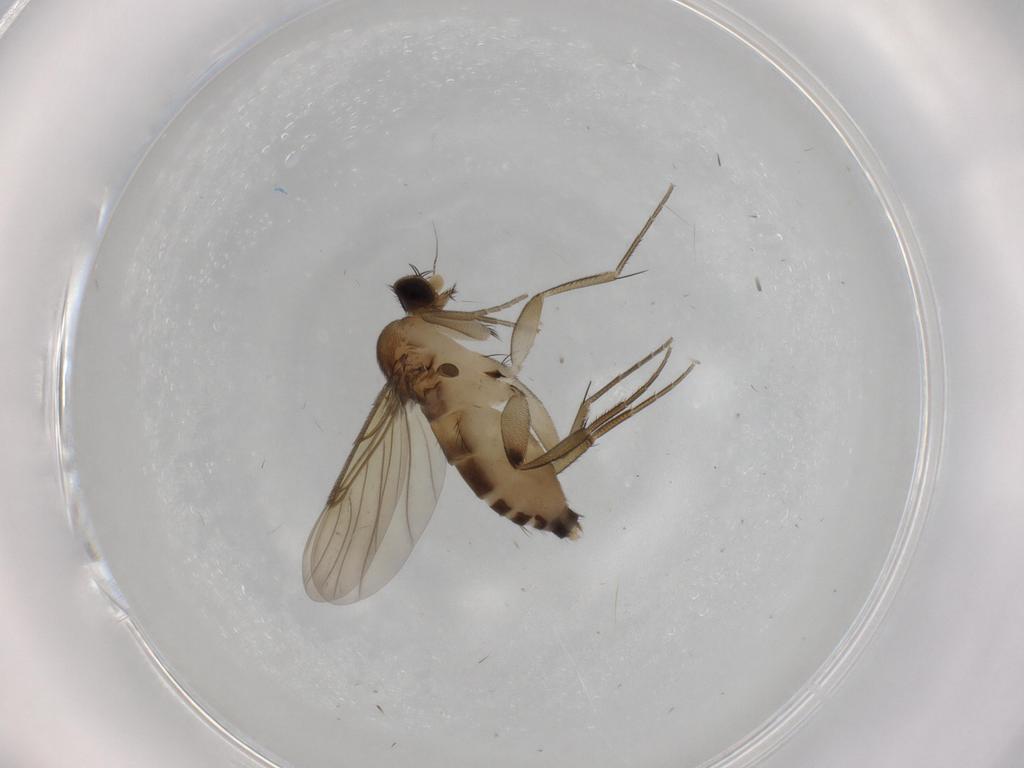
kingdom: Animalia
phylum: Arthropoda
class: Insecta
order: Diptera
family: Phoridae
